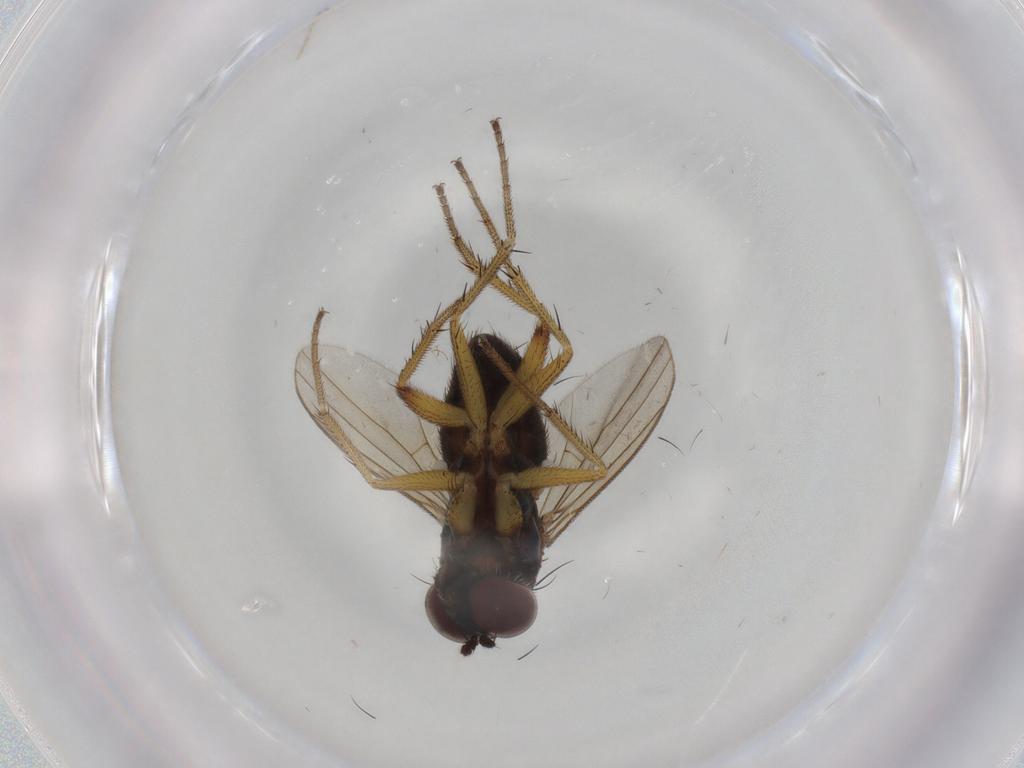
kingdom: Animalia
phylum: Arthropoda
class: Insecta
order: Diptera
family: Dolichopodidae
